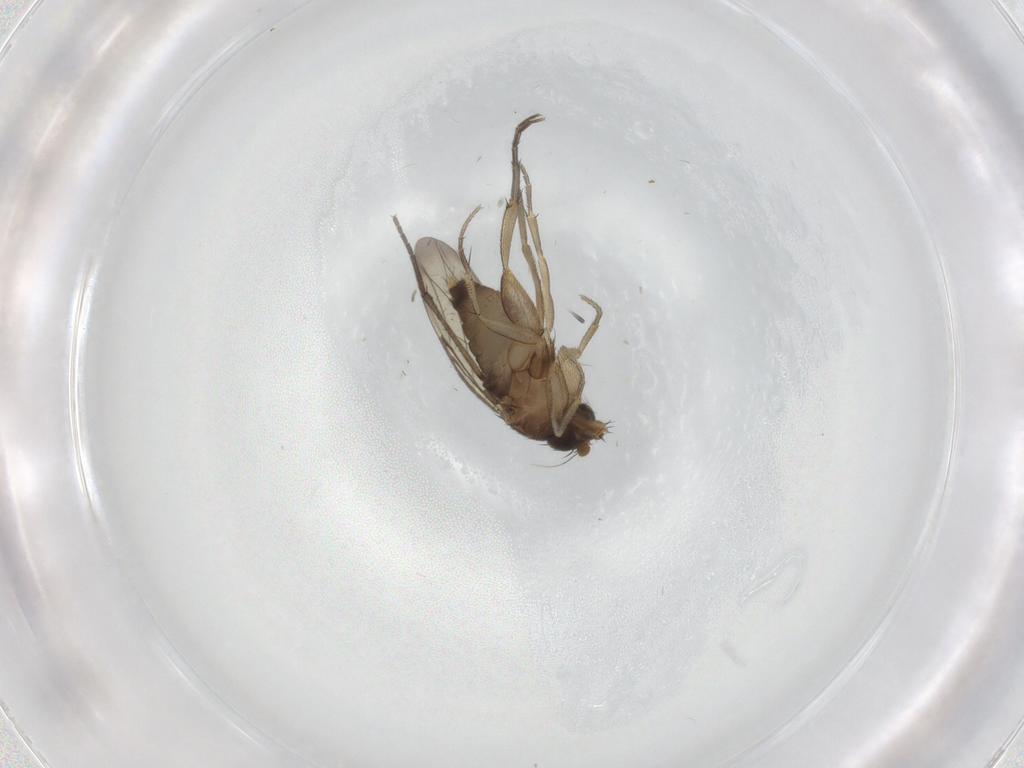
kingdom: Animalia
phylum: Arthropoda
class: Insecta
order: Diptera
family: Phoridae
